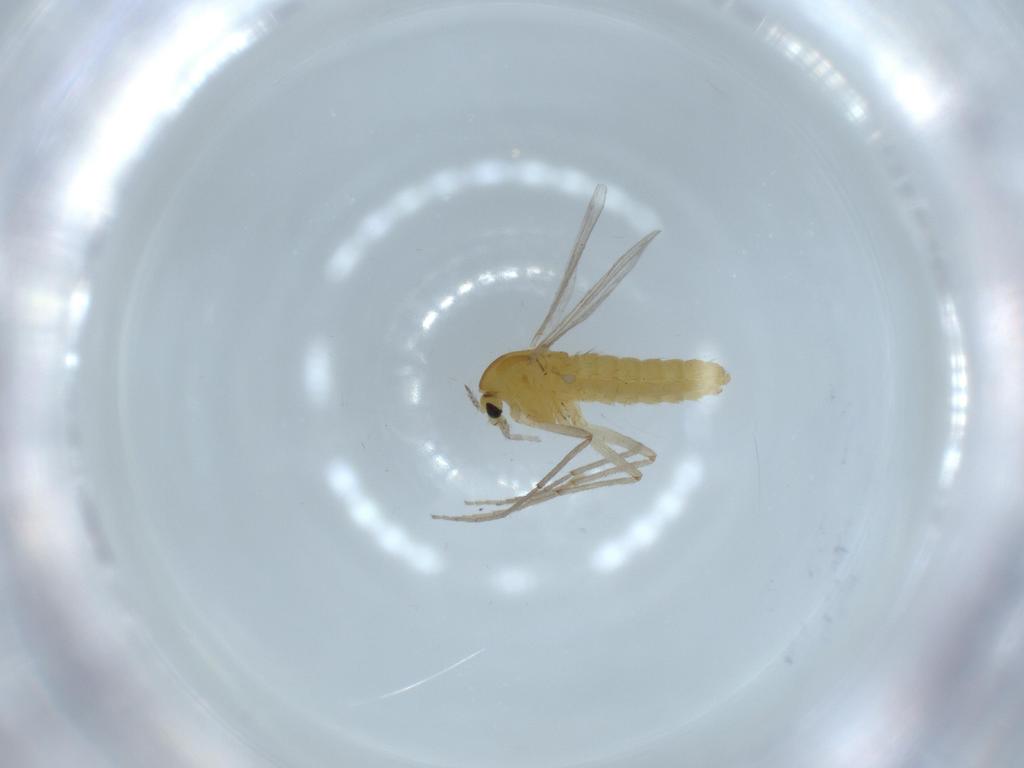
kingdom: Animalia
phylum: Arthropoda
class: Insecta
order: Diptera
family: Chironomidae
